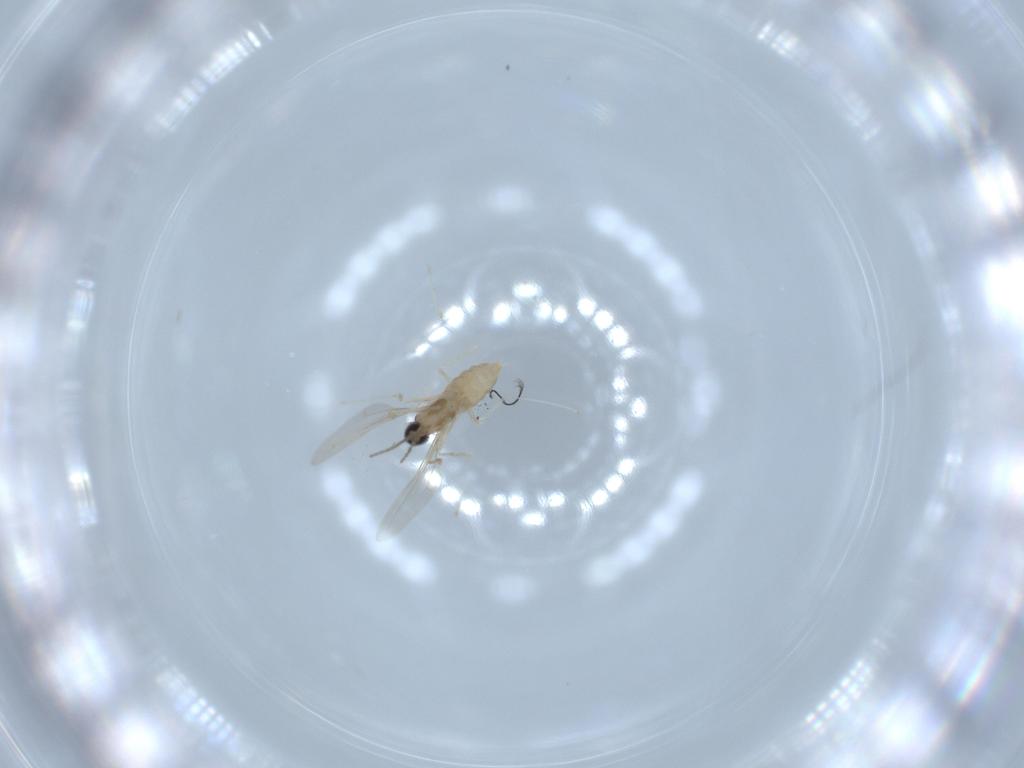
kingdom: Animalia
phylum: Arthropoda
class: Insecta
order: Diptera
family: Cecidomyiidae
